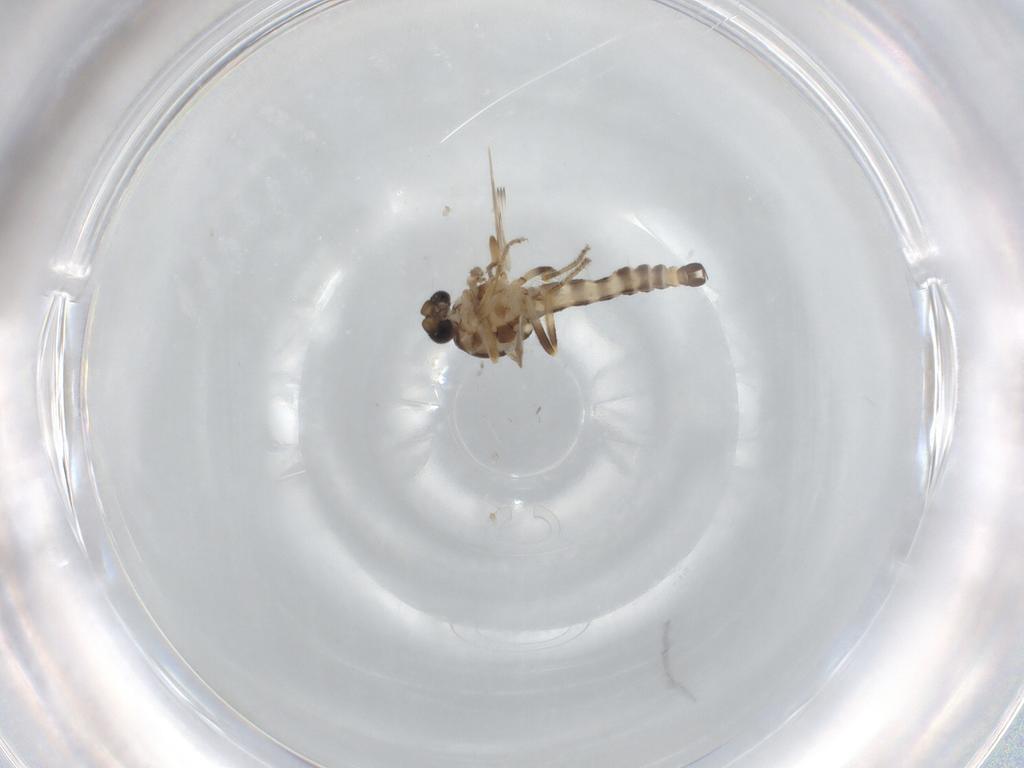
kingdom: Animalia
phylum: Arthropoda
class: Insecta
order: Diptera
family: Ceratopogonidae
